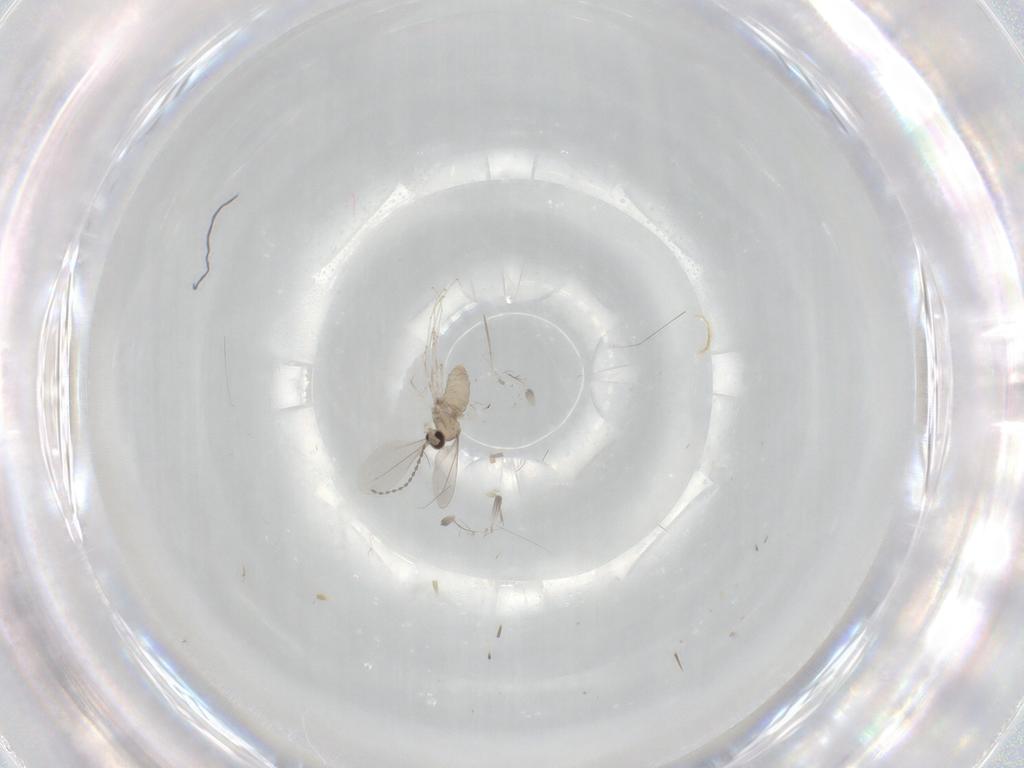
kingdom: Animalia
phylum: Arthropoda
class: Insecta
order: Diptera
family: Cecidomyiidae
